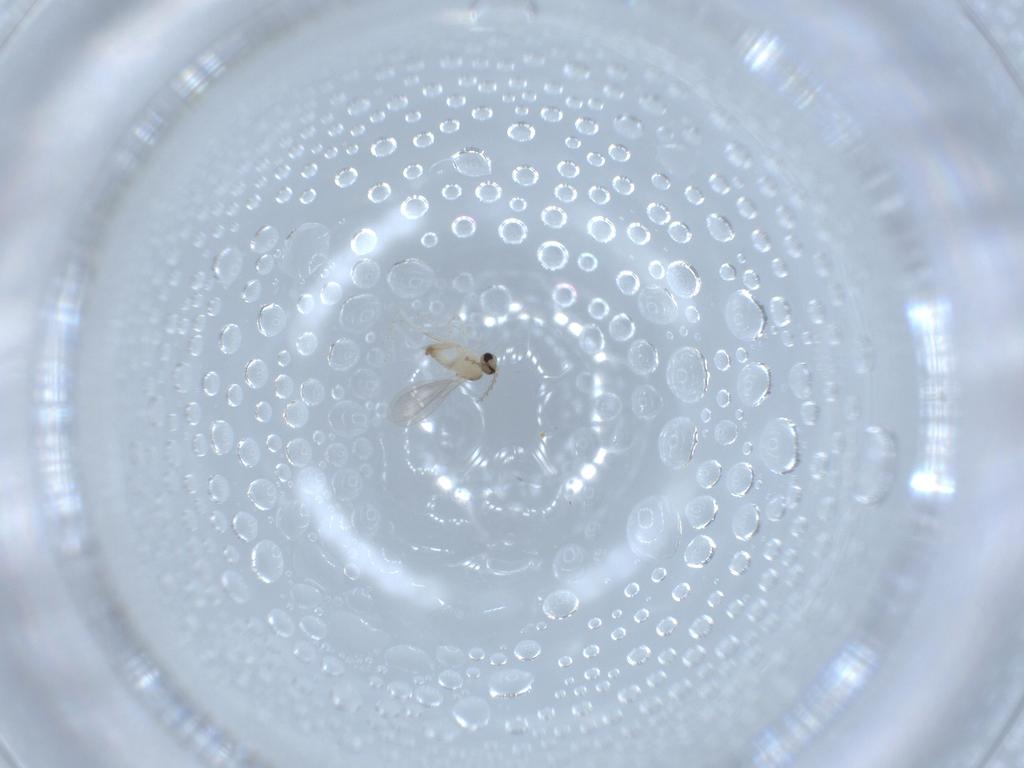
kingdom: Animalia
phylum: Arthropoda
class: Insecta
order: Diptera
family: Cecidomyiidae
